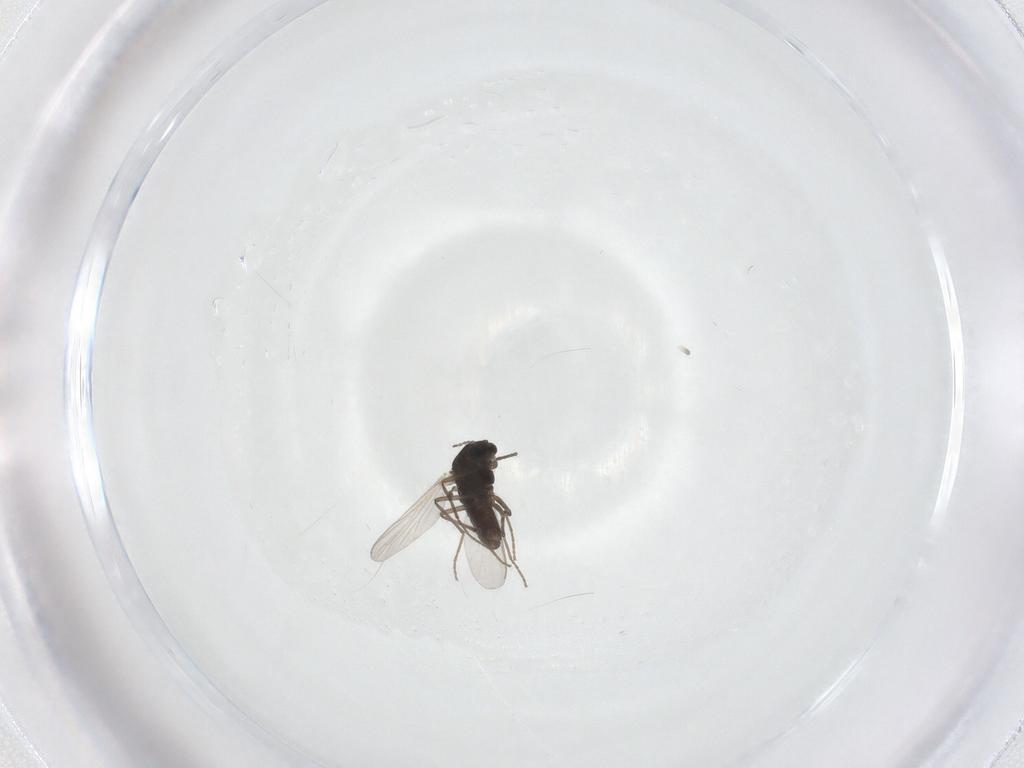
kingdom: Animalia
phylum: Arthropoda
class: Insecta
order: Diptera
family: Chironomidae
